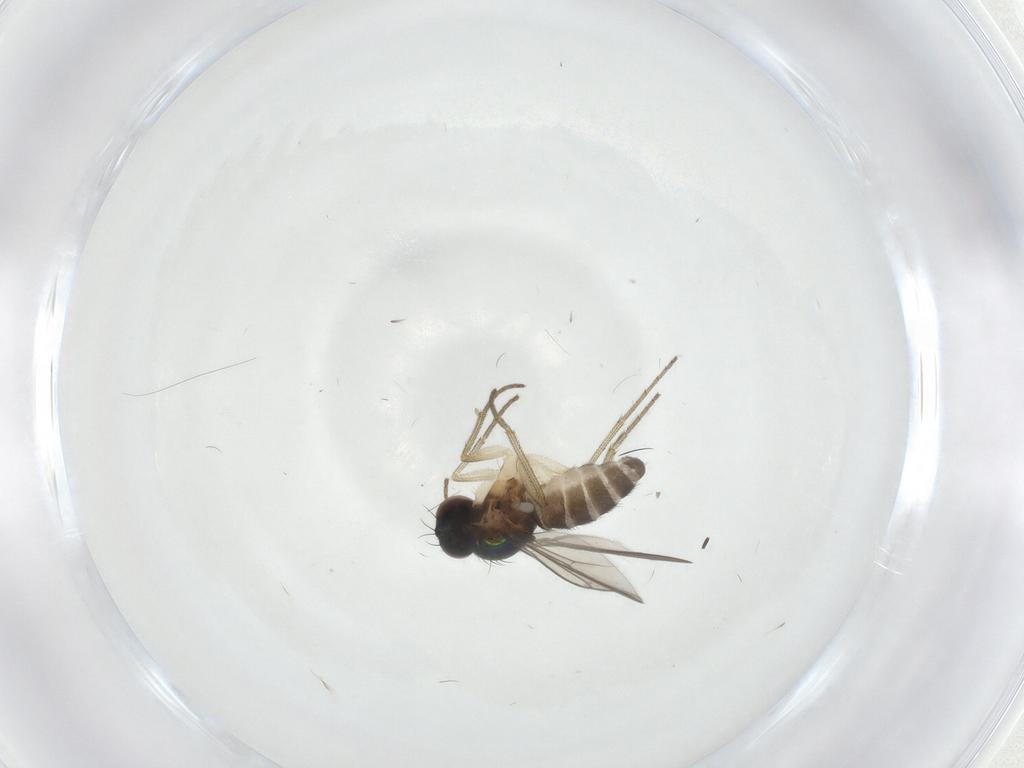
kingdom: Animalia
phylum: Arthropoda
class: Insecta
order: Diptera
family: Dolichopodidae
